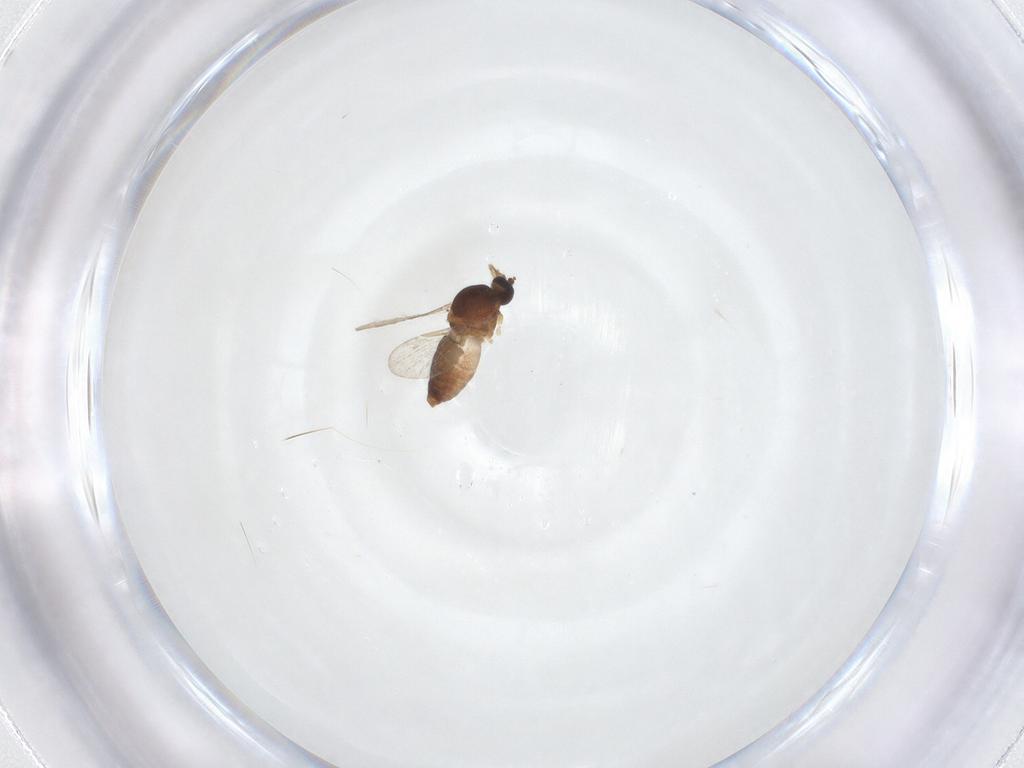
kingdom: Animalia
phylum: Arthropoda
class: Insecta
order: Diptera
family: Ceratopogonidae
